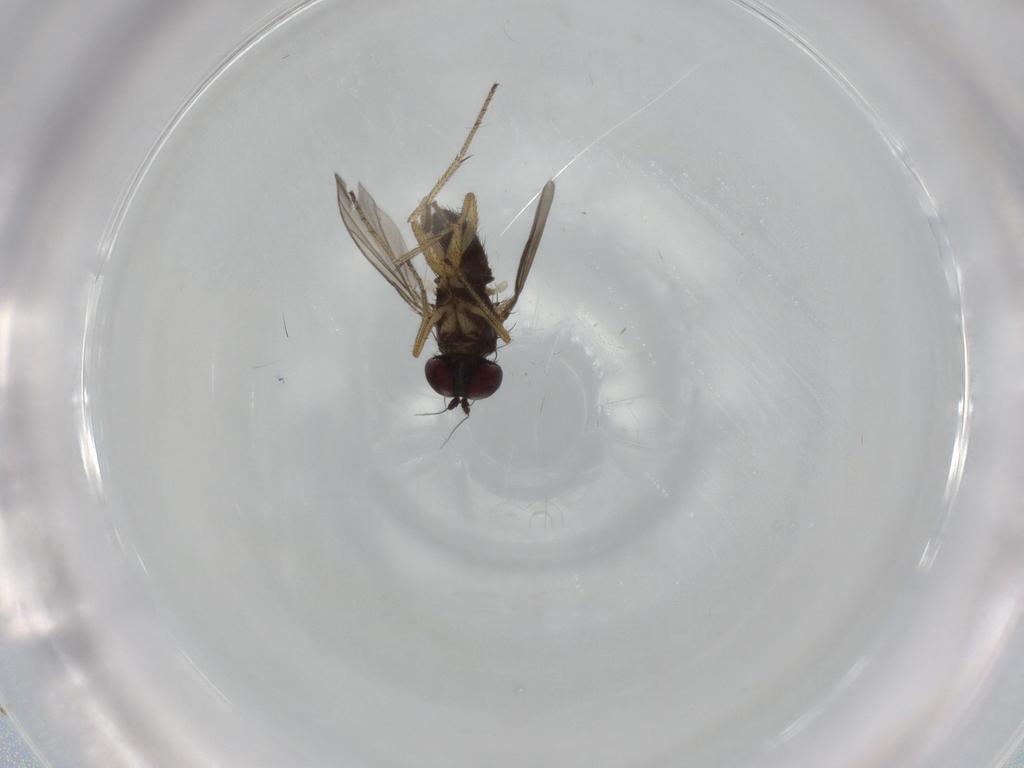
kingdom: Animalia
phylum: Arthropoda
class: Insecta
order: Diptera
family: Dolichopodidae
